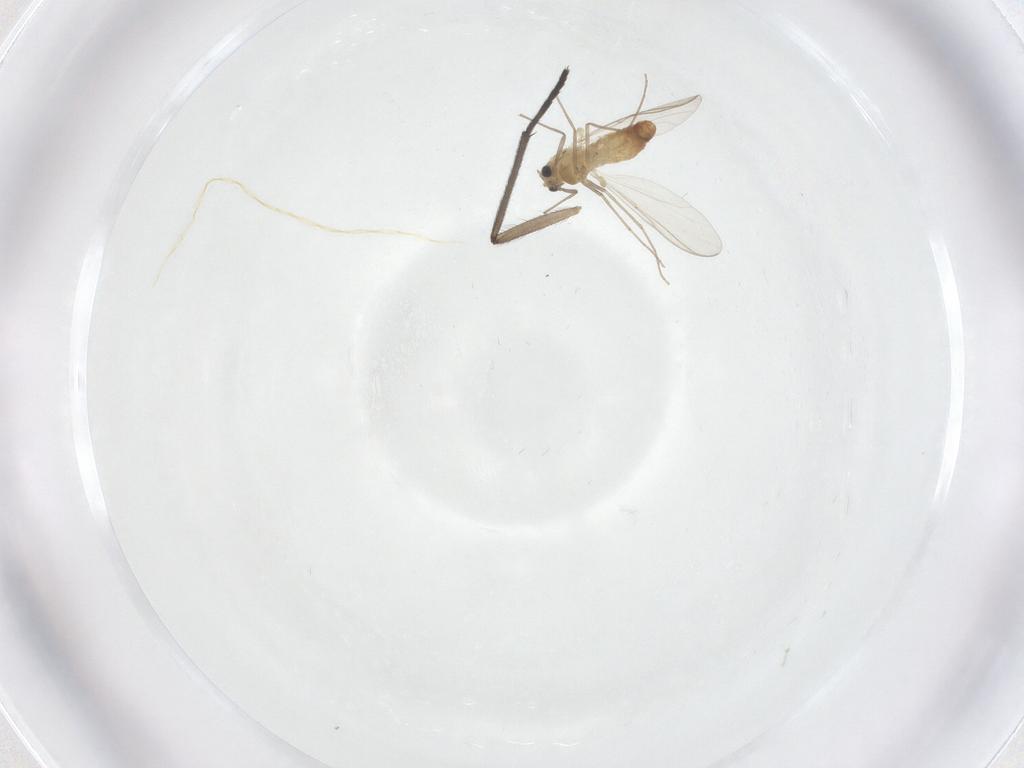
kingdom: Animalia
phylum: Arthropoda
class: Insecta
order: Diptera
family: Chironomidae
